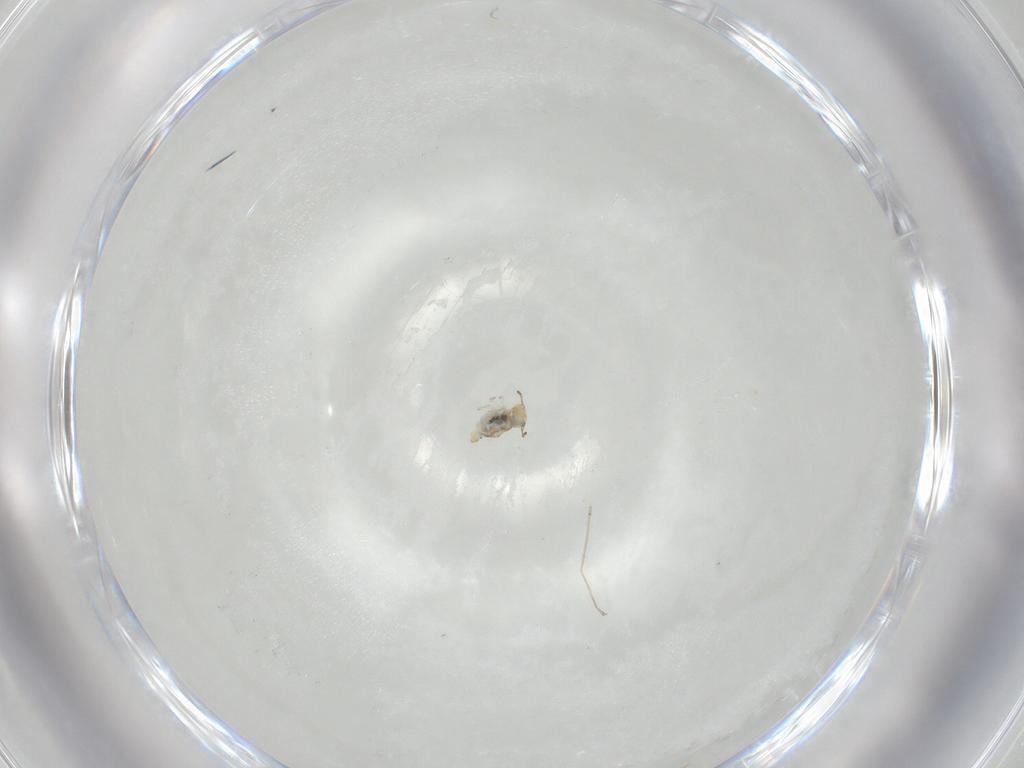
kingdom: Animalia
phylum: Arthropoda
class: Collembola
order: Symphypleona
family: Bourletiellidae
